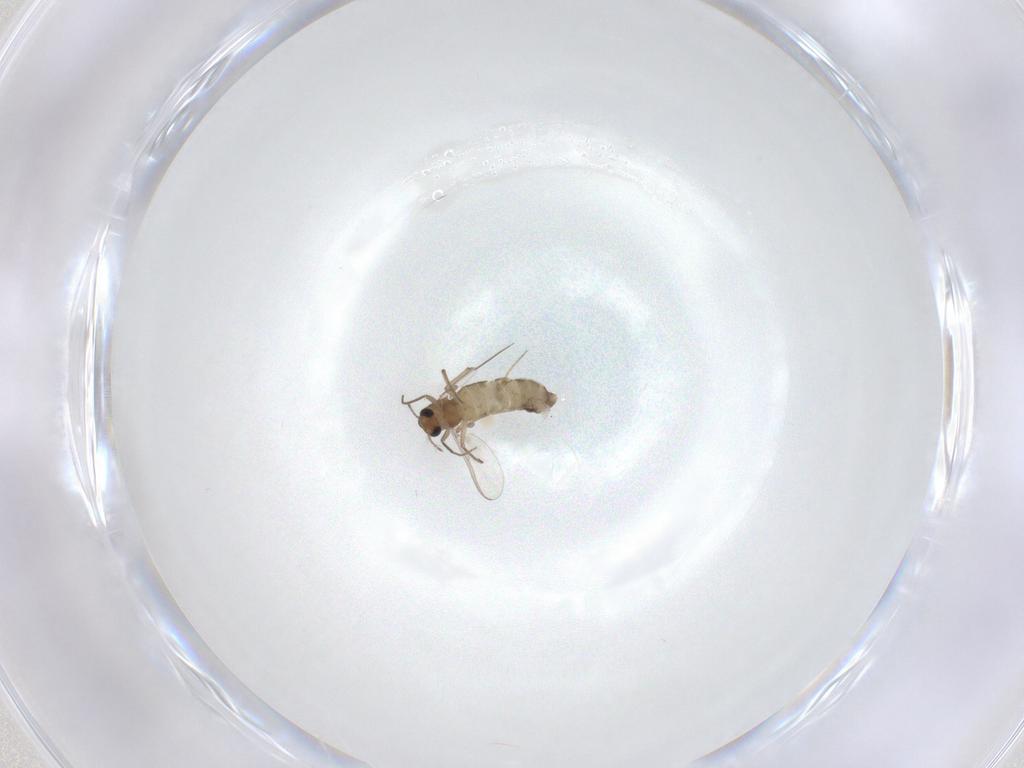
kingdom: Animalia
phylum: Arthropoda
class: Insecta
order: Diptera
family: Chironomidae
